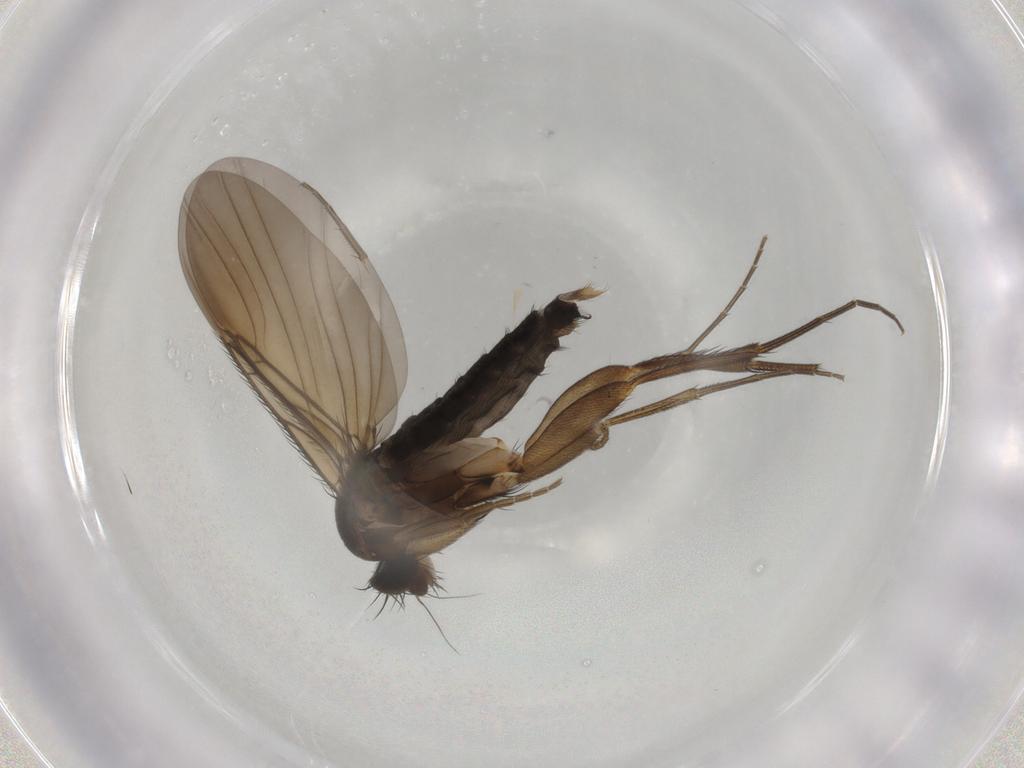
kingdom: Animalia
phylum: Arthropoda
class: Insecta
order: Diptera
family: Phoridae
